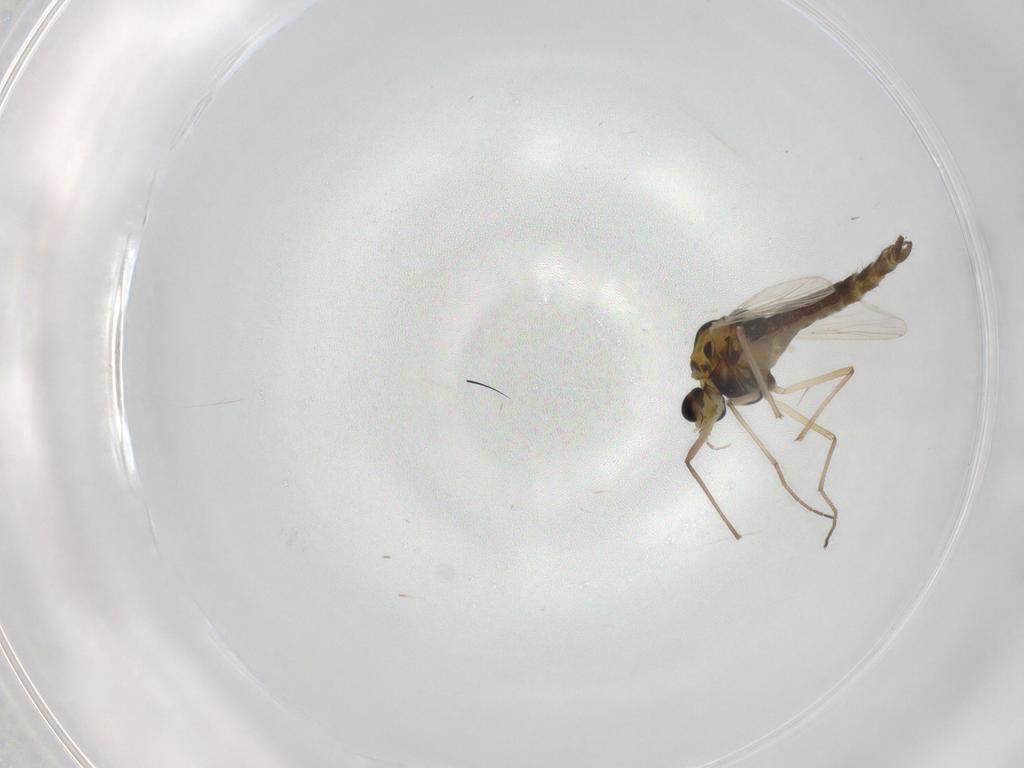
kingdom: Animalia
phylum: Arthropoda
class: Insecta
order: Diptera
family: Chironomidae
